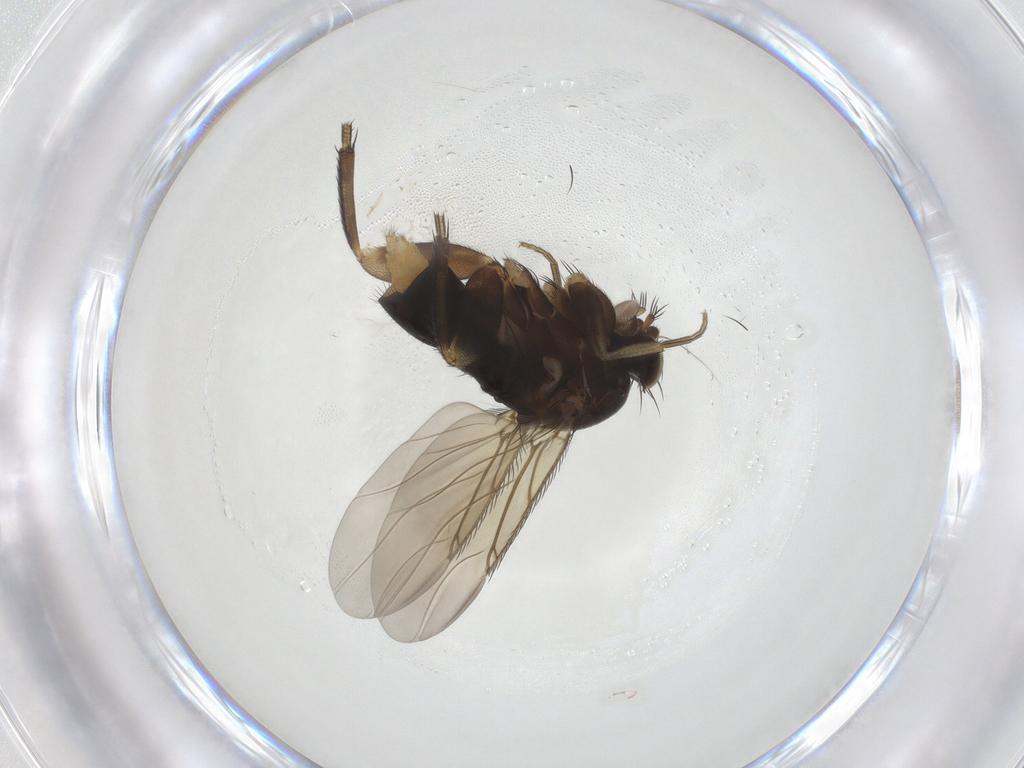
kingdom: Animalia
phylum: Arthropoda
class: Insecta
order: Diptera
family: Phoridae
